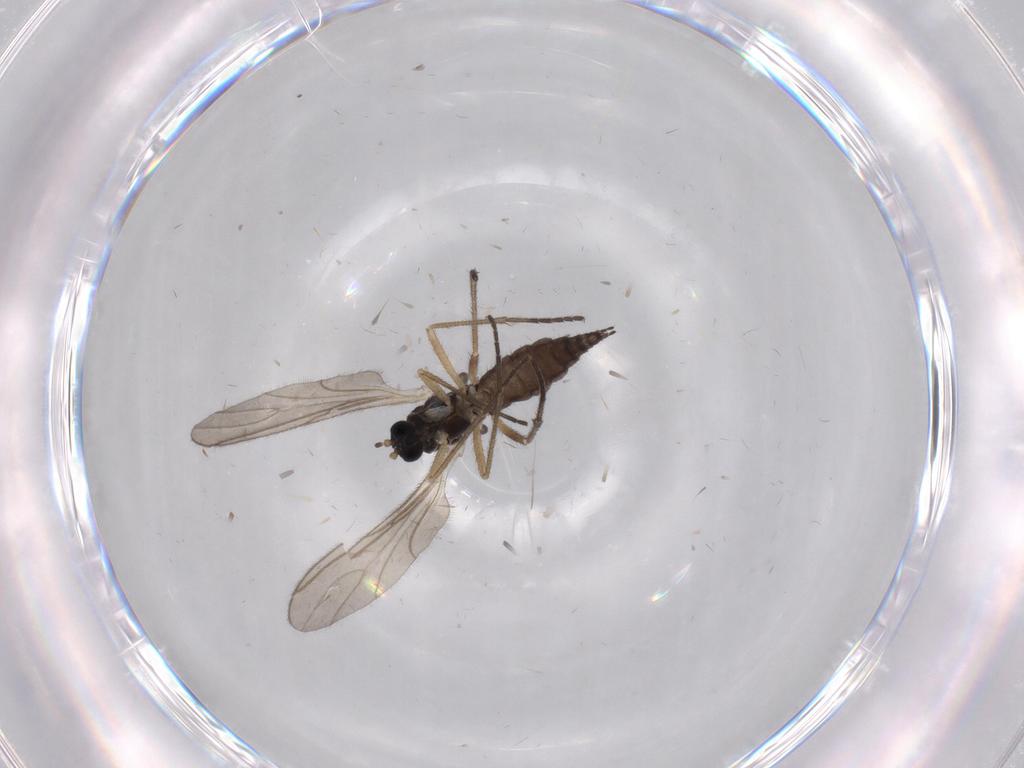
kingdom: Animalia
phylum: Arthropoda
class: Insecta
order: Diptera
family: Sciaridae
